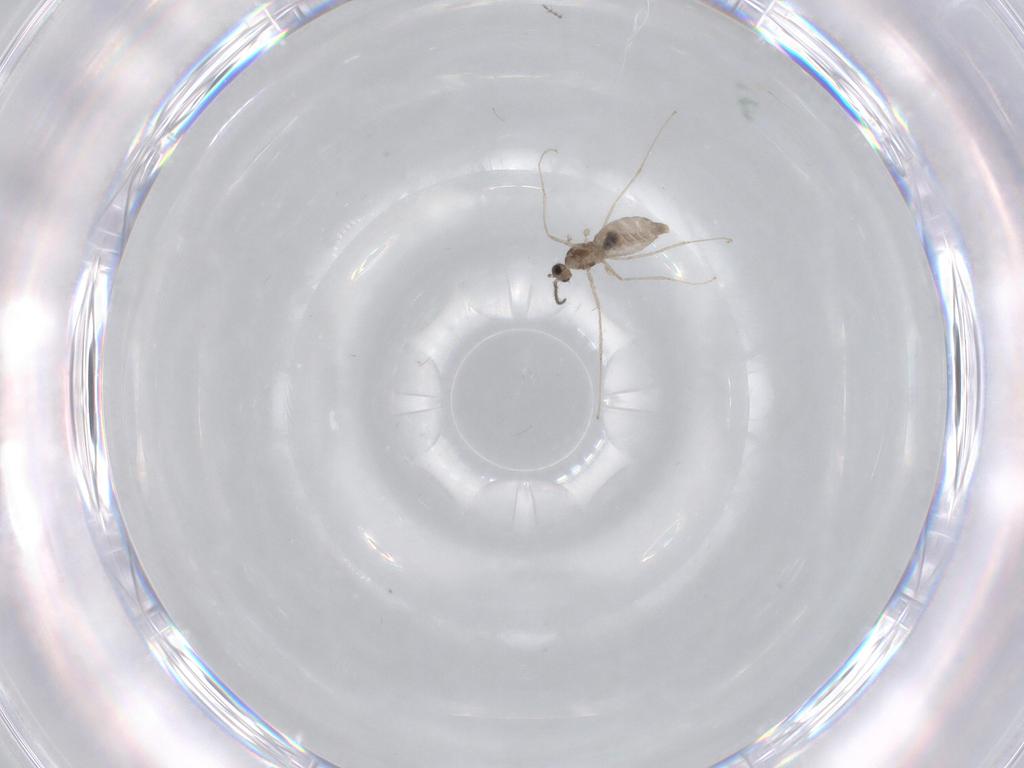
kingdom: Animalia
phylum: Arthropoda
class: Insecta
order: Diptera
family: Chironomidae
